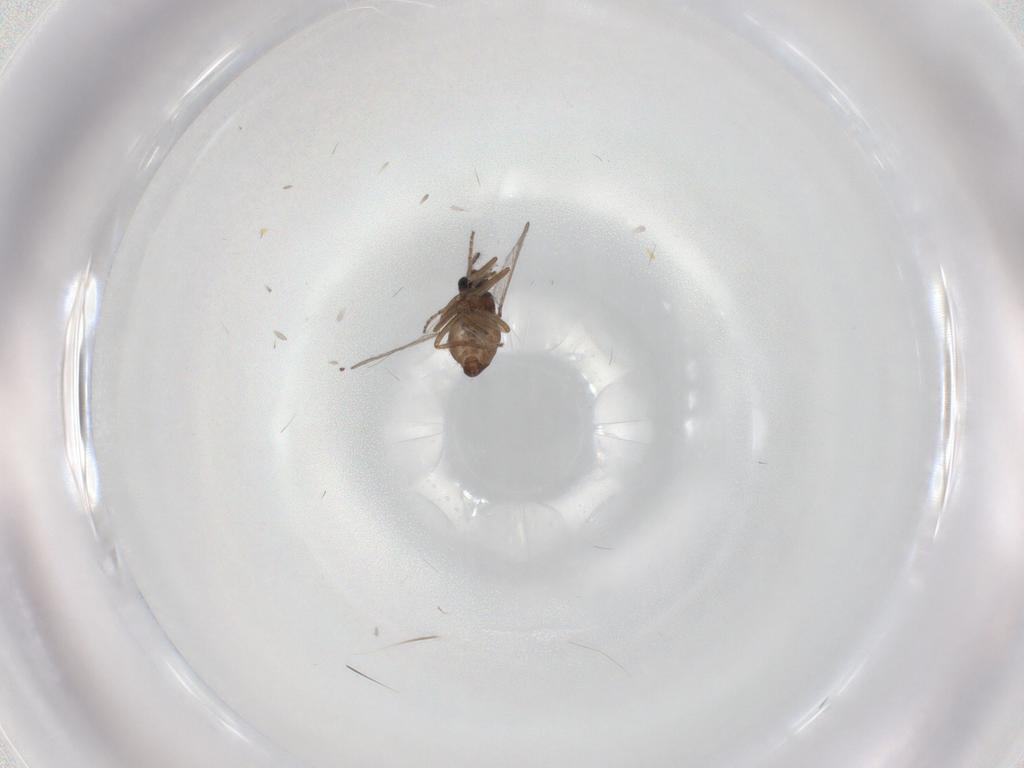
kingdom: Animalia
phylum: Arthropoda
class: Insecta
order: Diptera
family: Ceratopogonidae
